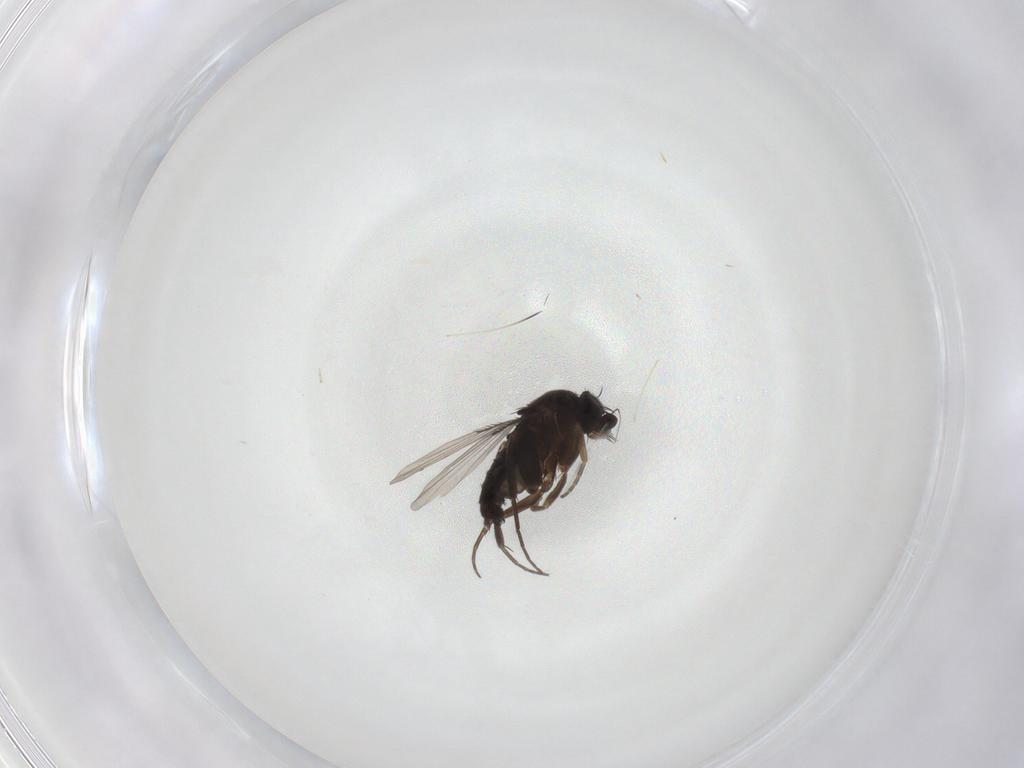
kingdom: Animalia
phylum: Arthropoda
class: Insecta
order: Diptera
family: Cecidomyiidae
